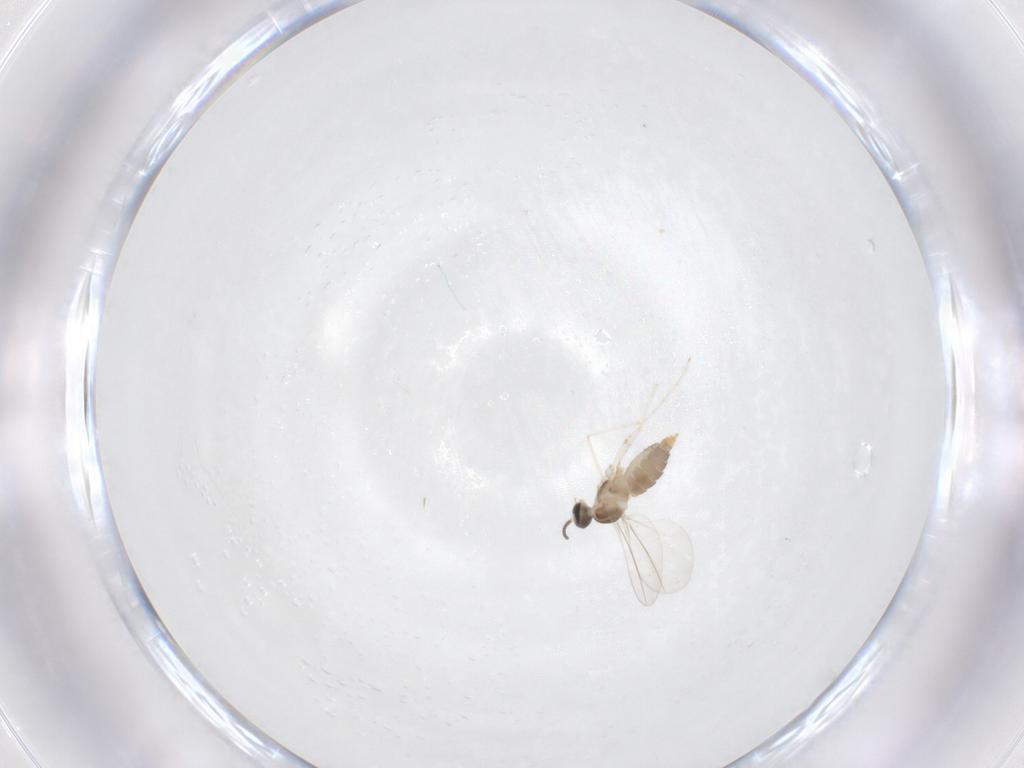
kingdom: Animalia
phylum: Arthropoda
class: Insecta
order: Diptera
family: Cecidomyiidae
